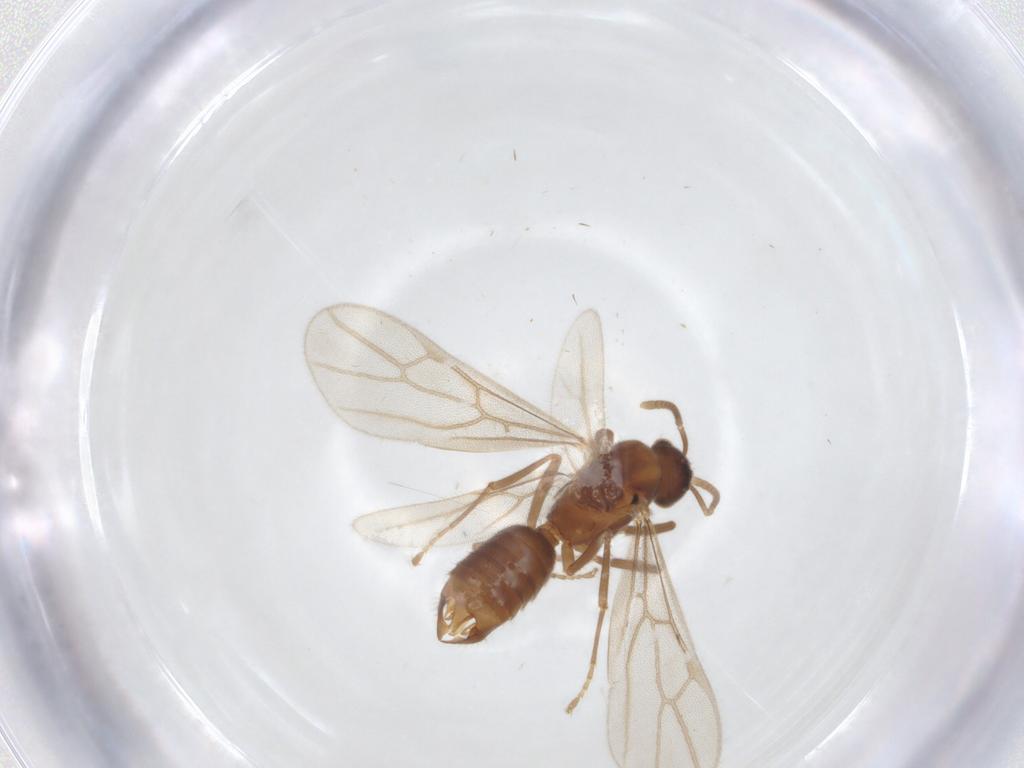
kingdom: Animalia
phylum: Arthropoda
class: Insecta
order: Hymenoptera
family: Formicidae
